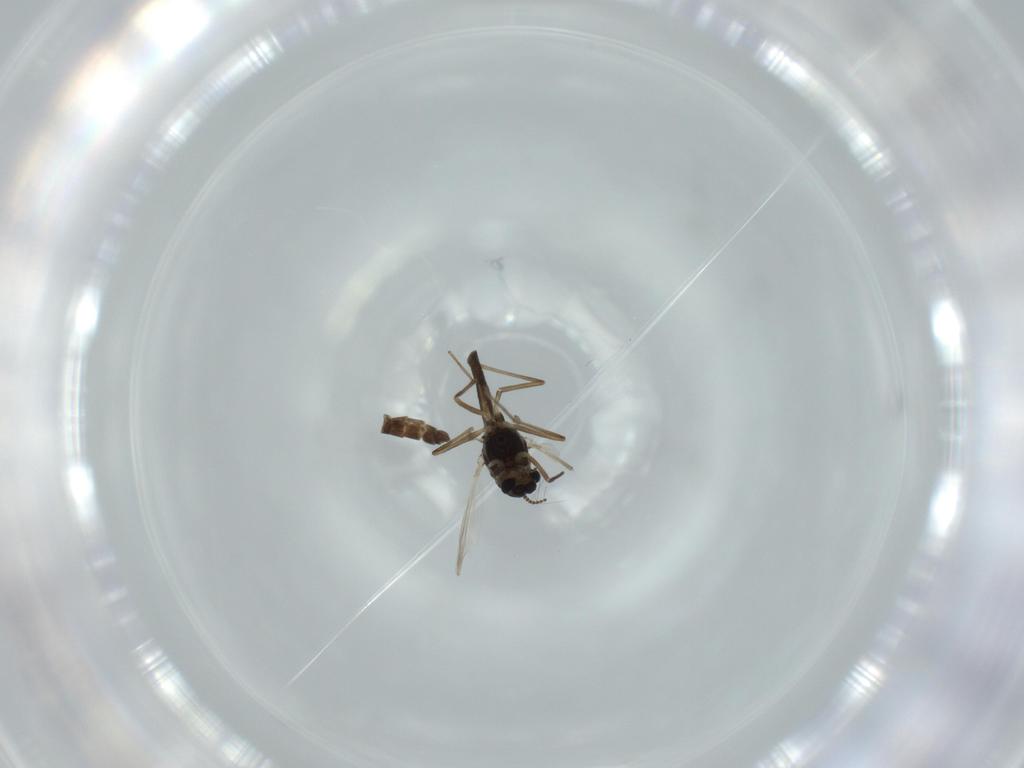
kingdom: Animalia
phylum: Arthropoda
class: Insecta
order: Diptera
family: Chironomidae
